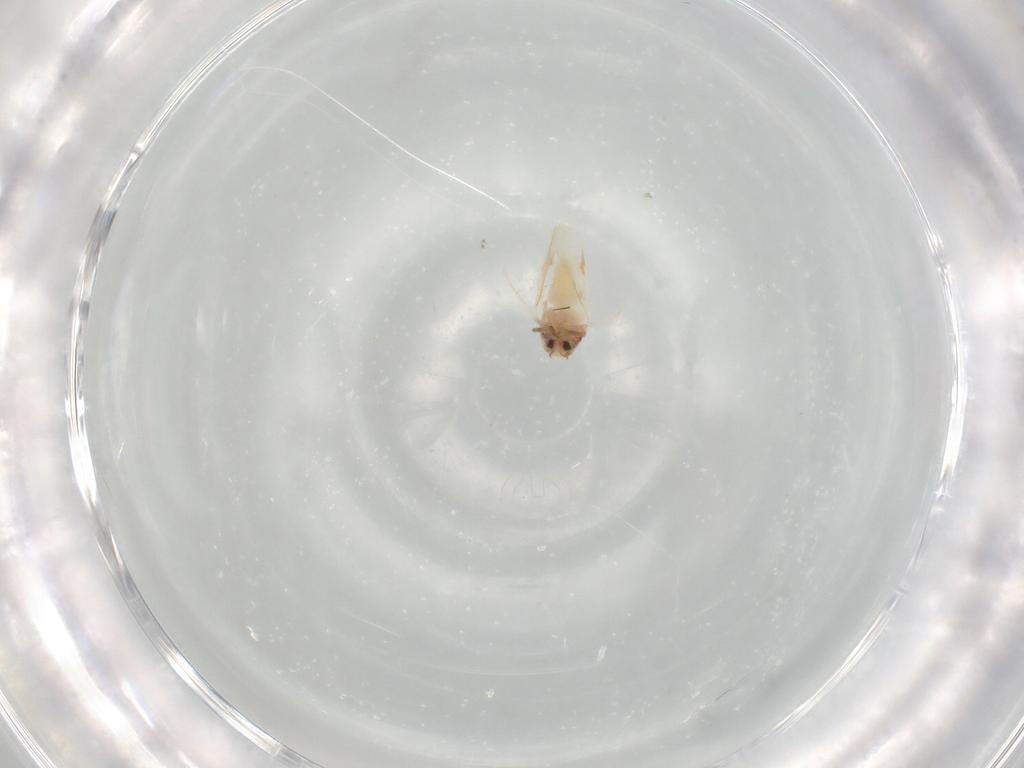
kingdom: Animalia
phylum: Arthropoda
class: Insecta
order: Hemiptera
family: Aleyrodidae
